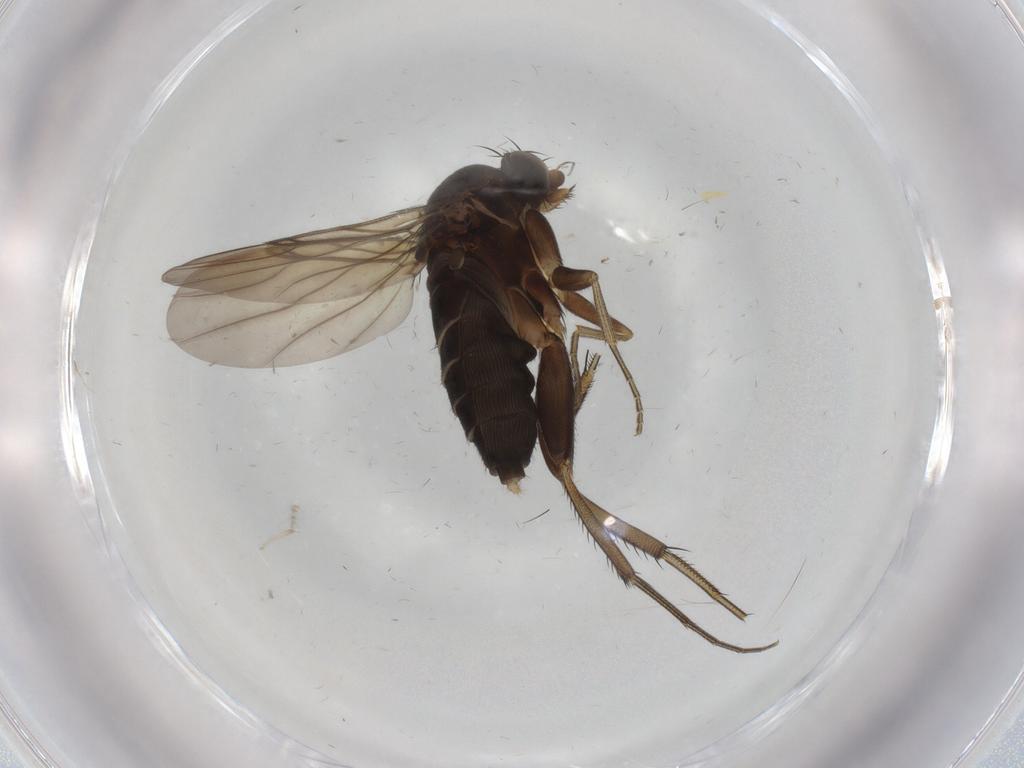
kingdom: Animalia
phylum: Arthropoda
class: Insecta
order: Diptera
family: Phoridae
